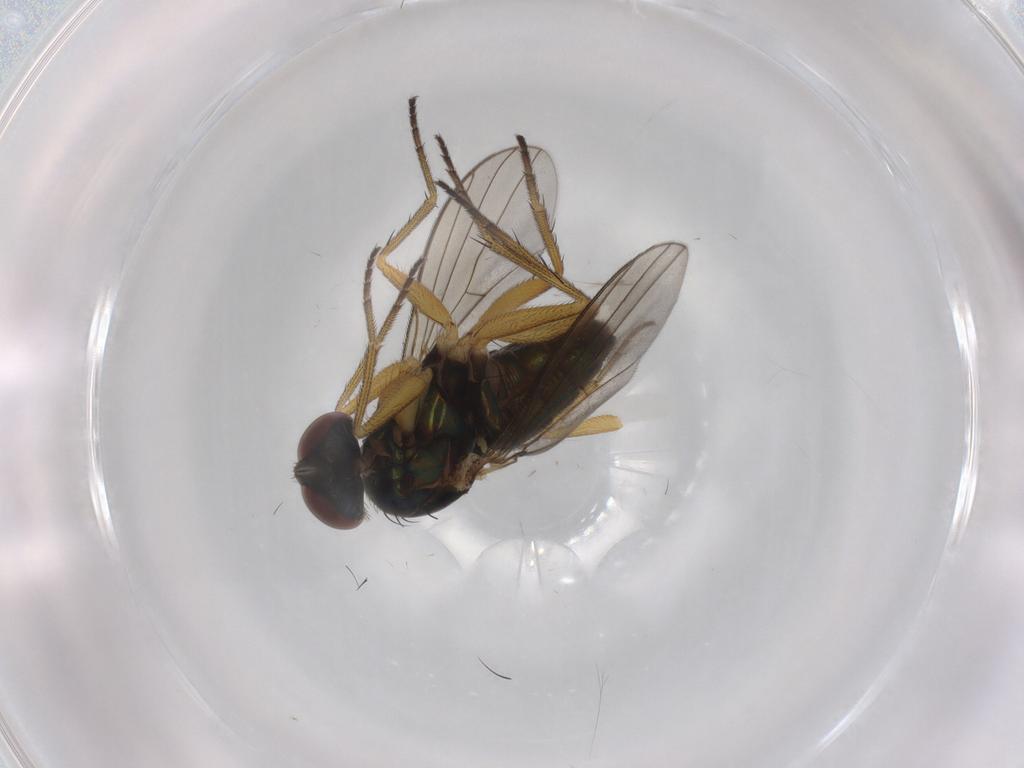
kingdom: Animalia
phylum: Arthropoda
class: Insecta
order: Diptera
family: Dolichopodidae
